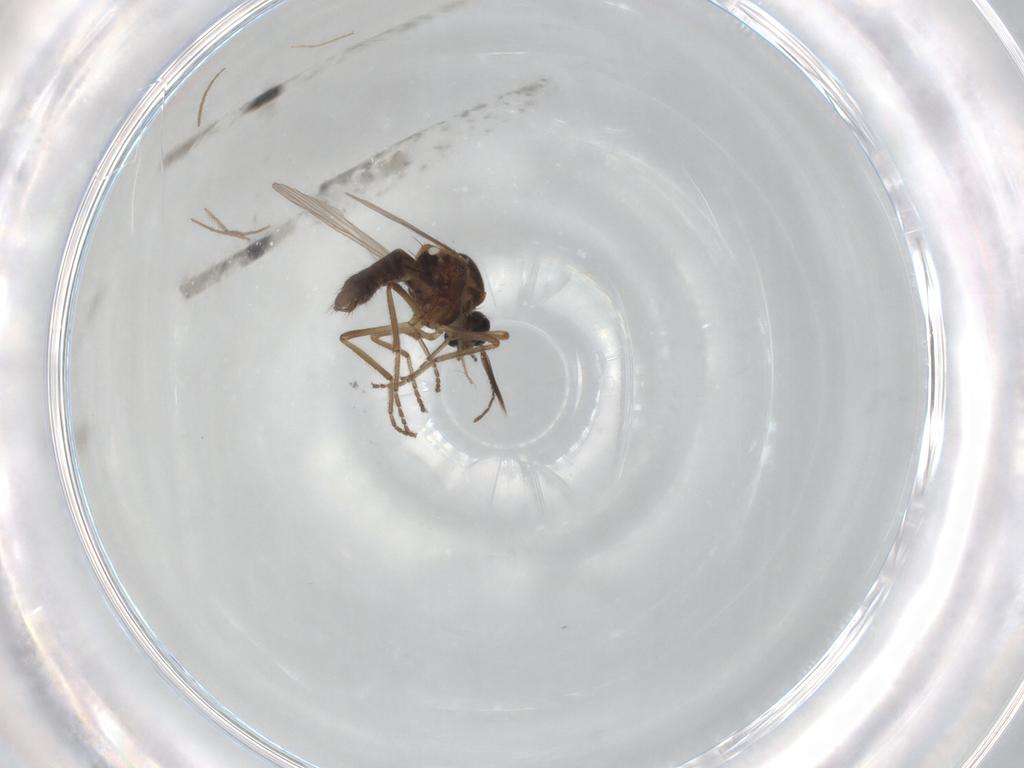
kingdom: Animalia
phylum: Arthropoda
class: Insecta
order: Diptera
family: Ceratopogonidae
